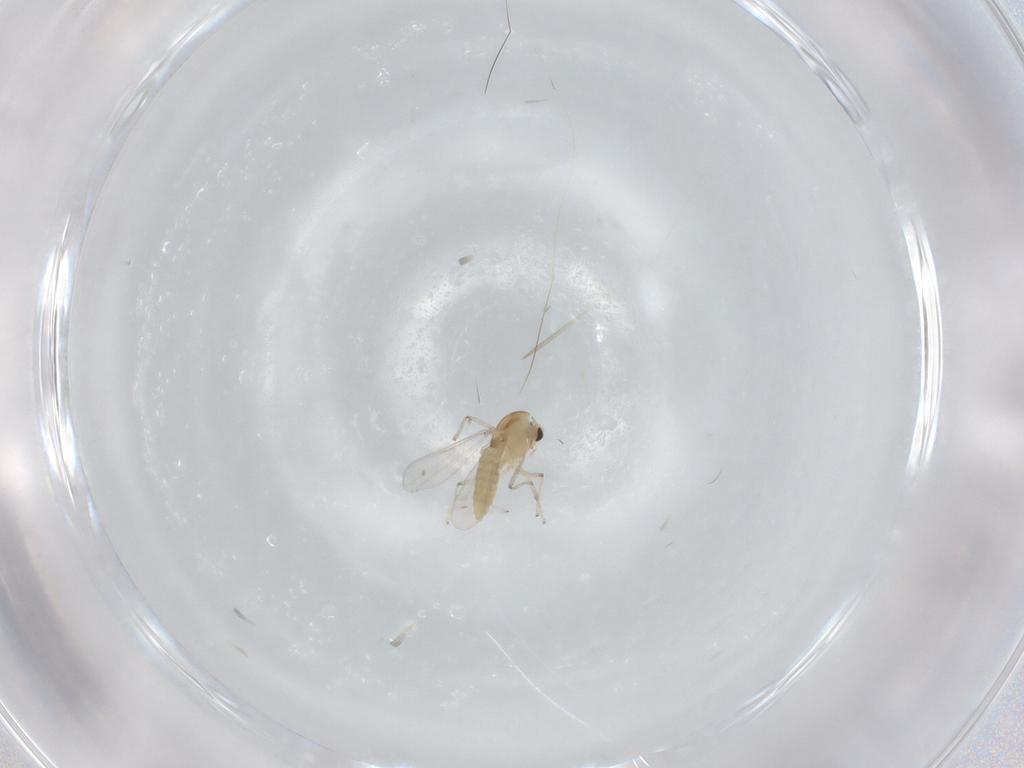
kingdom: Animalia
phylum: Arthropoda
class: Insecta
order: Diptera
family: Chironomidae
